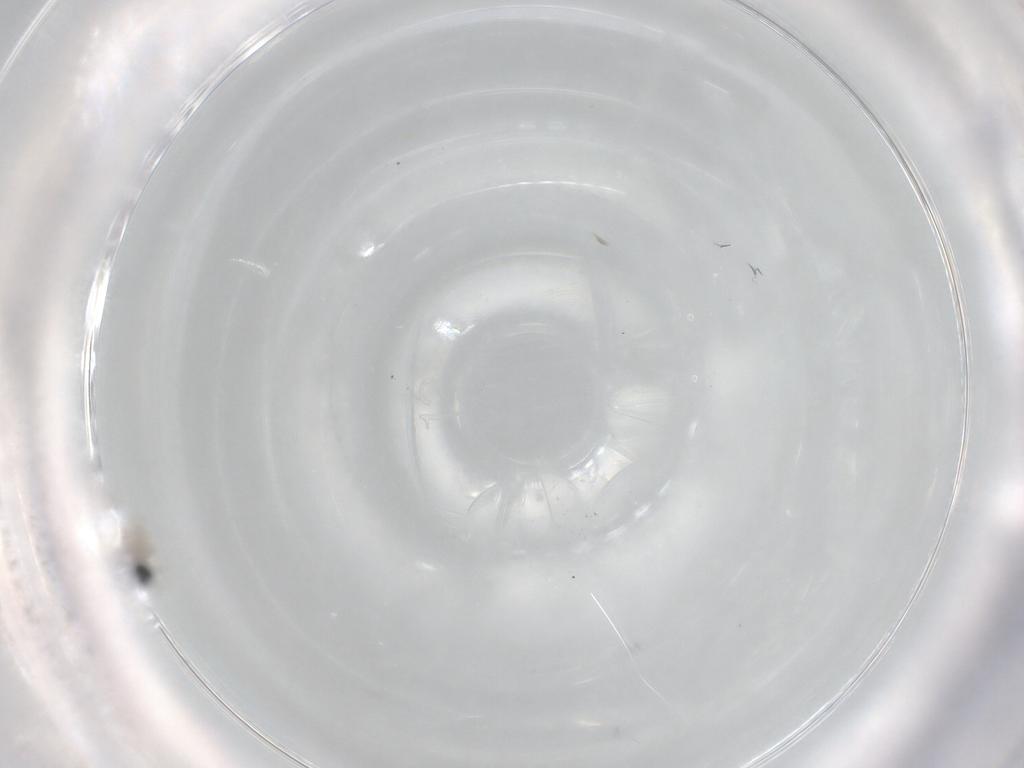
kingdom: Animalia
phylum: Arthropoda
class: Insecta
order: Diptera
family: Sarcophagidae
